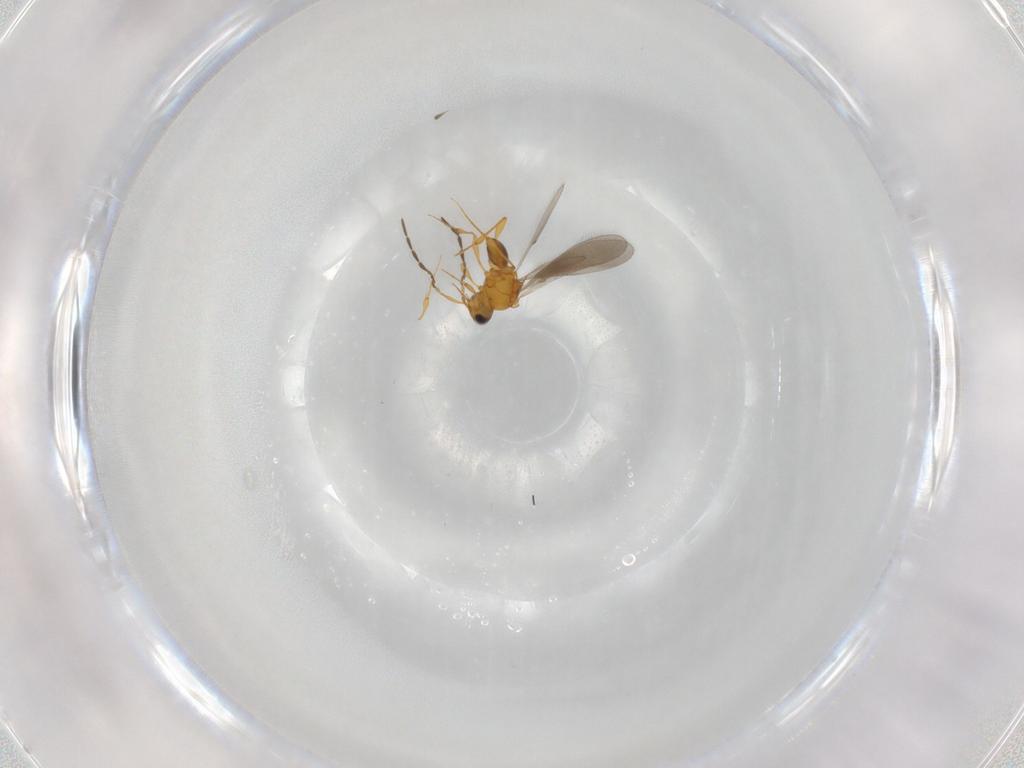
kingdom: Animalia
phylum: Arthropoda
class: Insecta
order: Hymenoptera
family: Platygastridae
